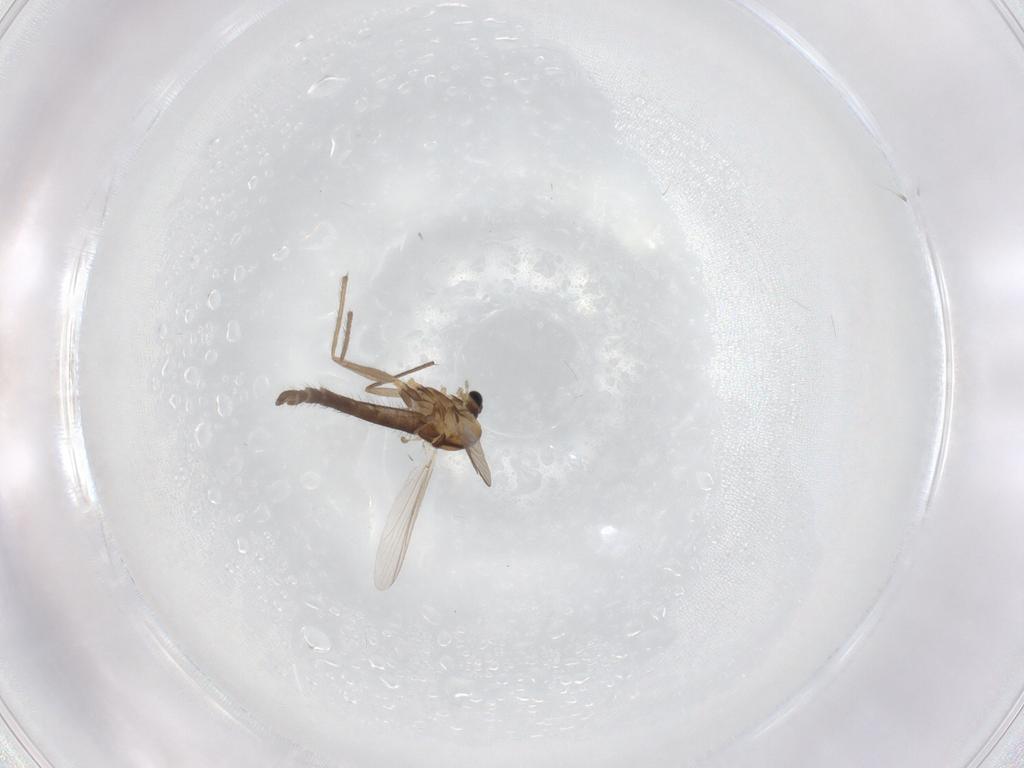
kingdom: Animalia
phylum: Arthropoda
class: Insecta
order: Diptera
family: Chironomidae
